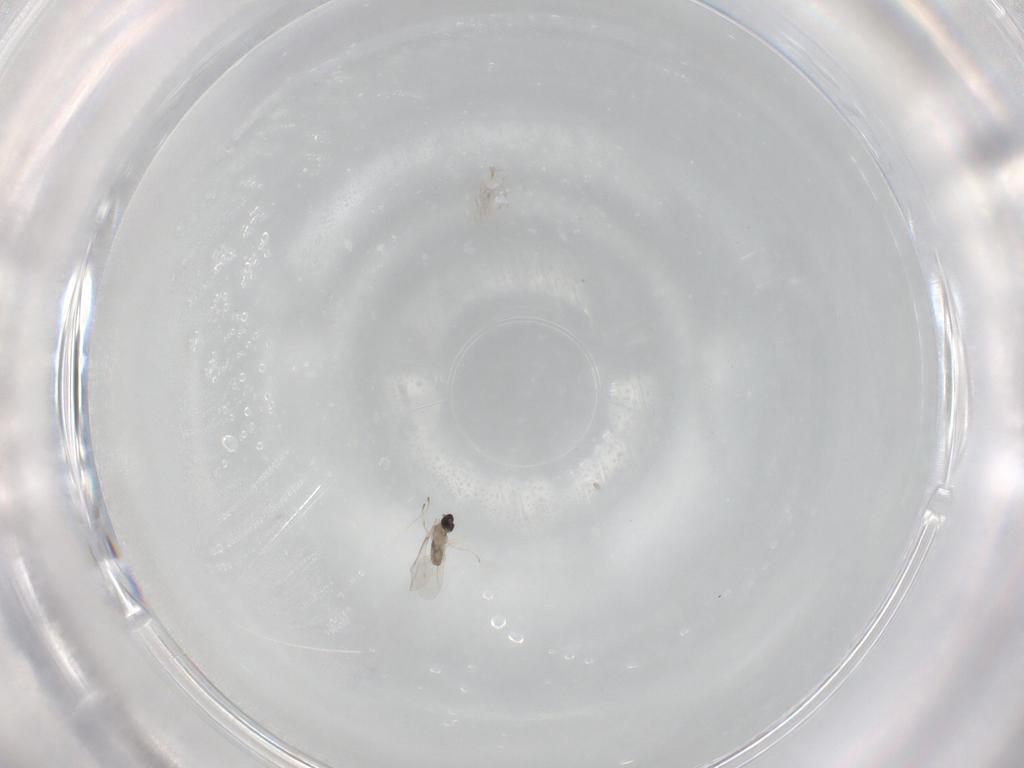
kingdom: Animalia
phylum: Arthropoda
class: Insecta
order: Diptera
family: Cecidomyiidae
